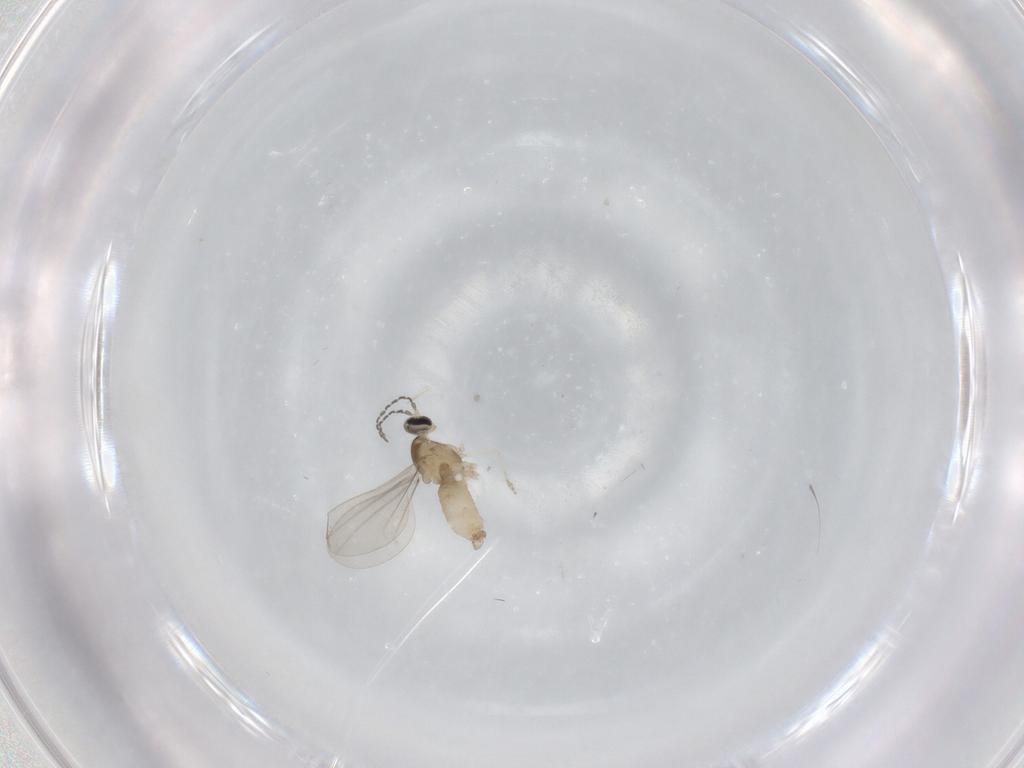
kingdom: Animalia
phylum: Arthropoda
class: Insecta
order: Diptera
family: Cecidomyiidae
